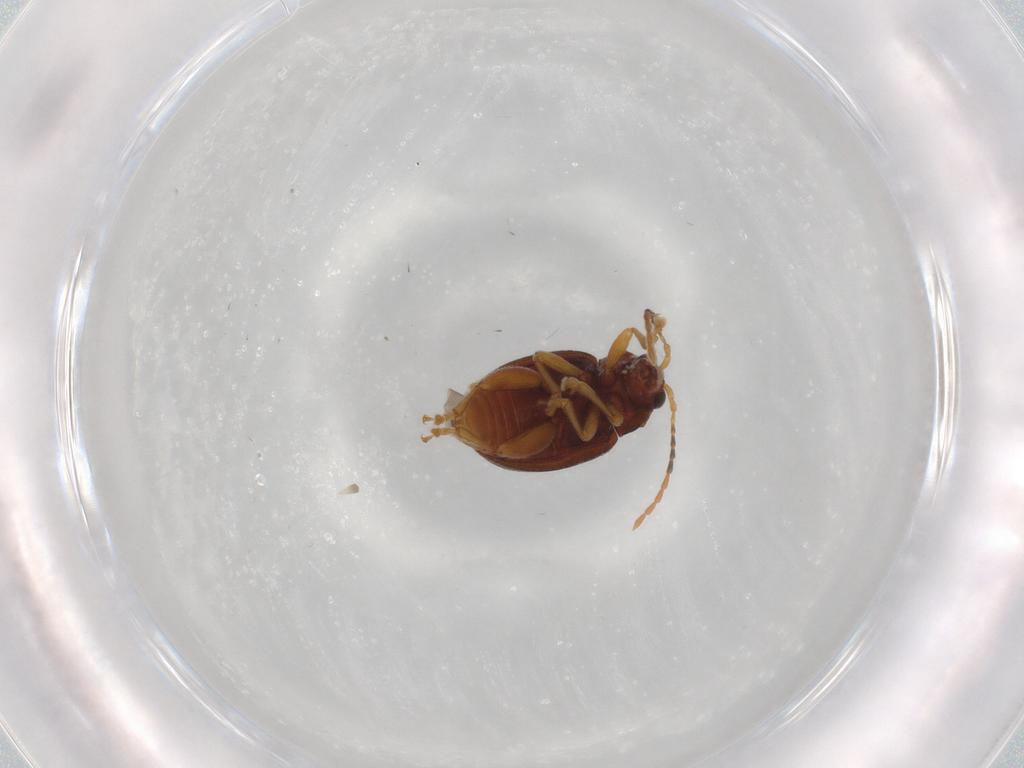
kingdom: Animalia
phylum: Arthropoda
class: Insecta
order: Coleoptera
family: Chrysomelidae
